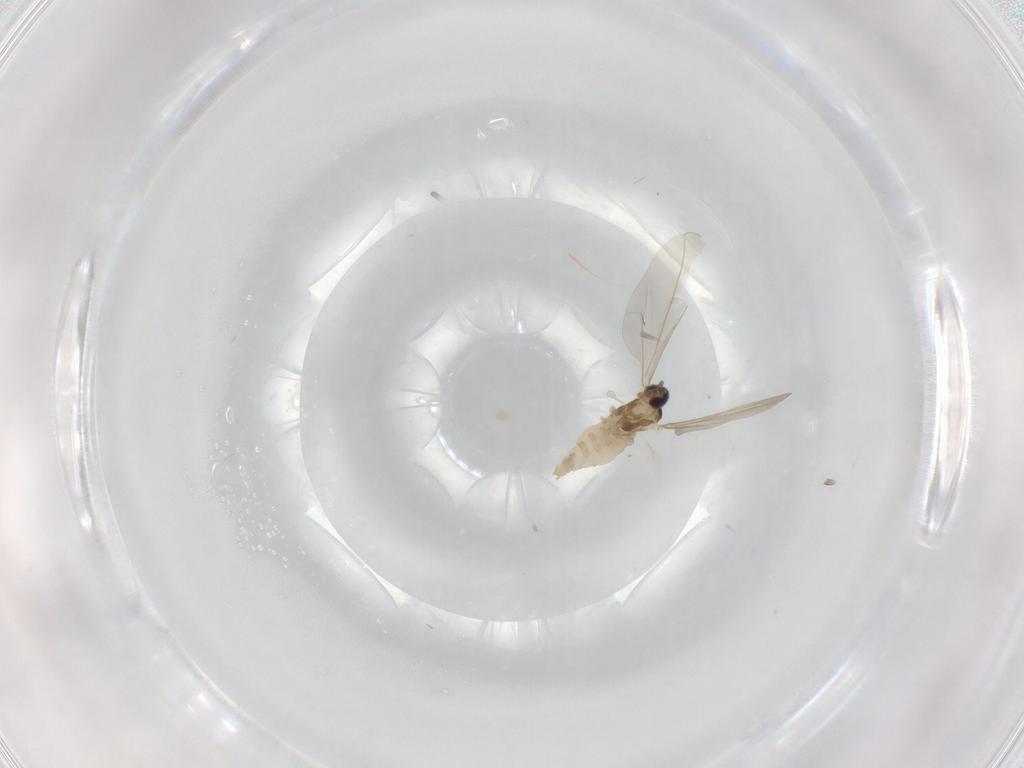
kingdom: Animalia
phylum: Arthropoda
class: Insecta
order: Diptera
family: Cecidomyiidae
